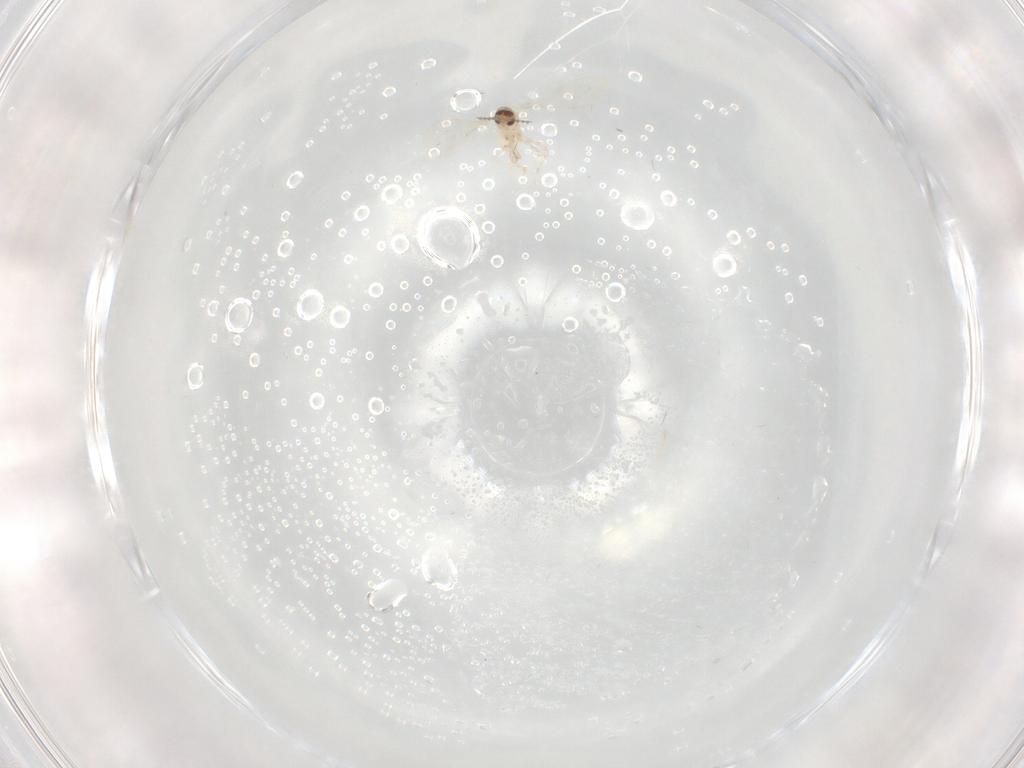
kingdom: Animalia
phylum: Arthropoda
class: Insecta
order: Diptera
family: Cecidomyiidae
